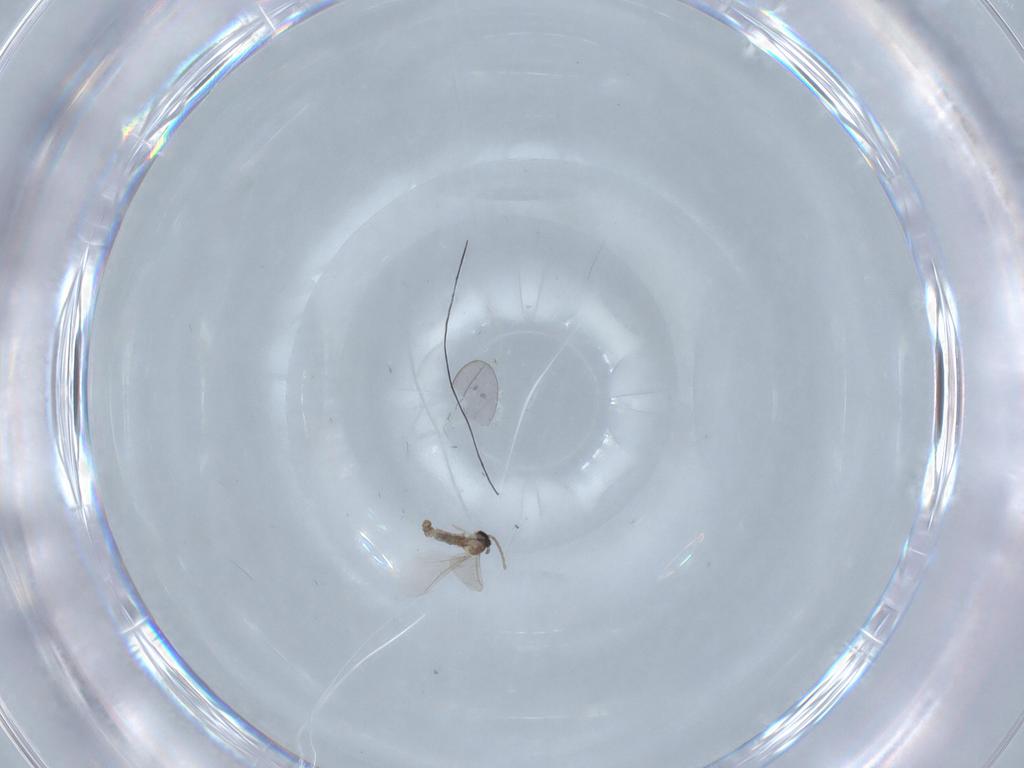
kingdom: Animalia
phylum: Arthropoda
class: Insecta
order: Diptera
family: Cecidomyiidae
